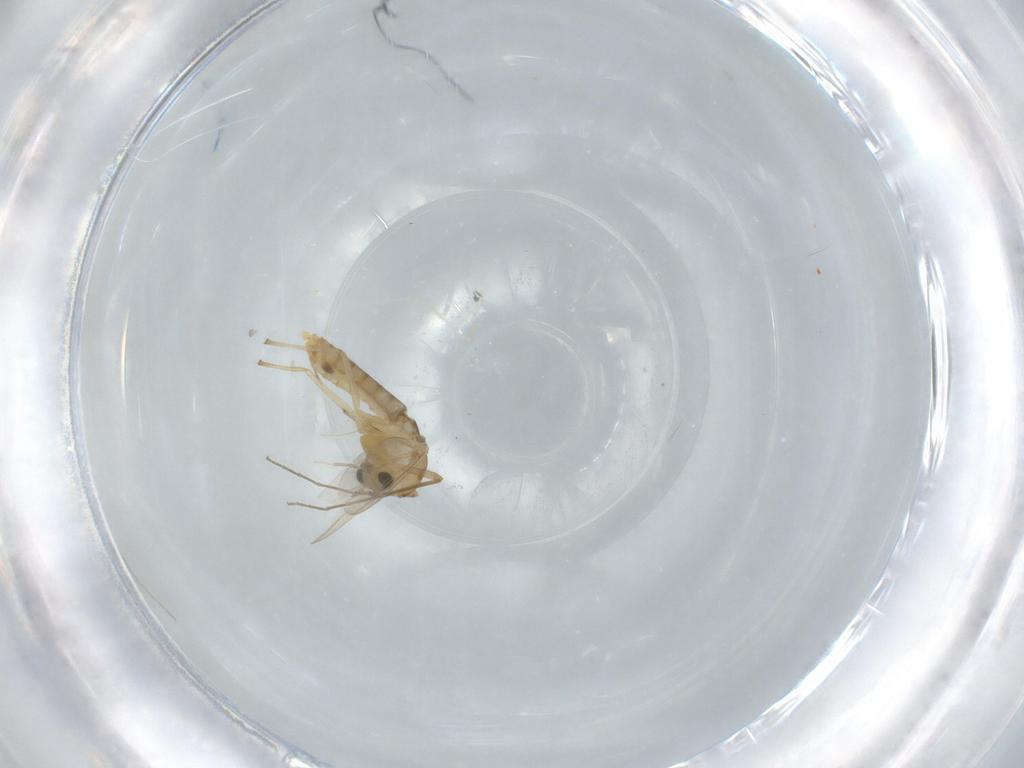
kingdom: Animalia
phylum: Arthropoda
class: Insecta
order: Diptera
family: Chironomidae
